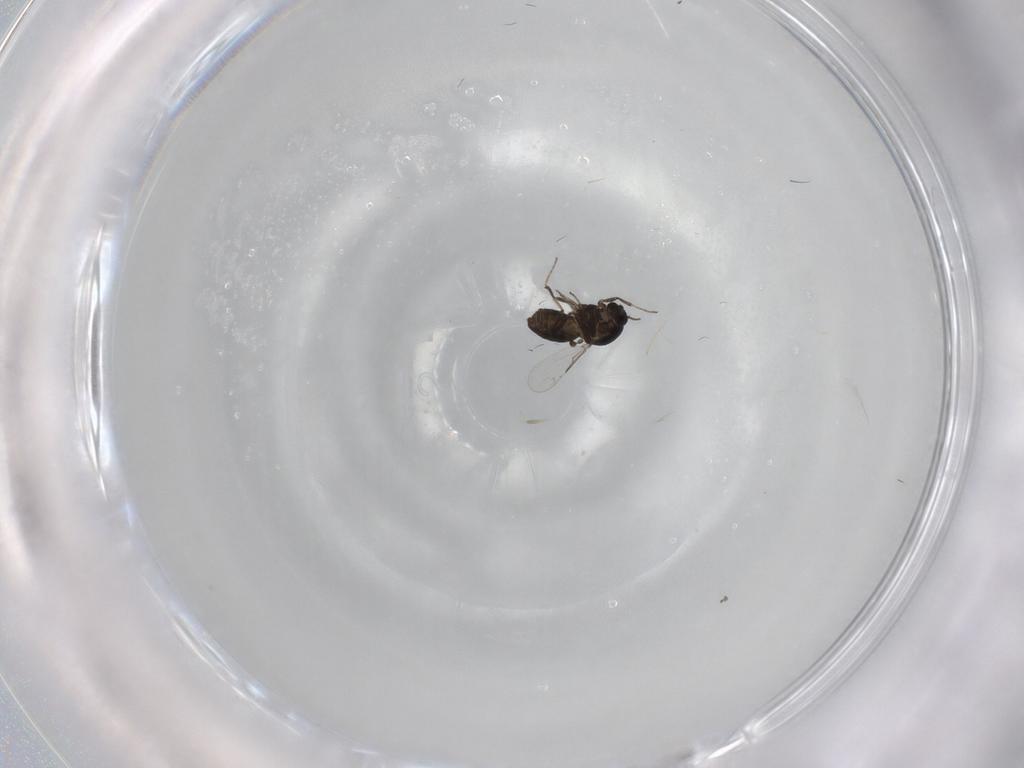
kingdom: Animalia
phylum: Arthropoda
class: Insecta
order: Diptera
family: Ceratopogonidae
